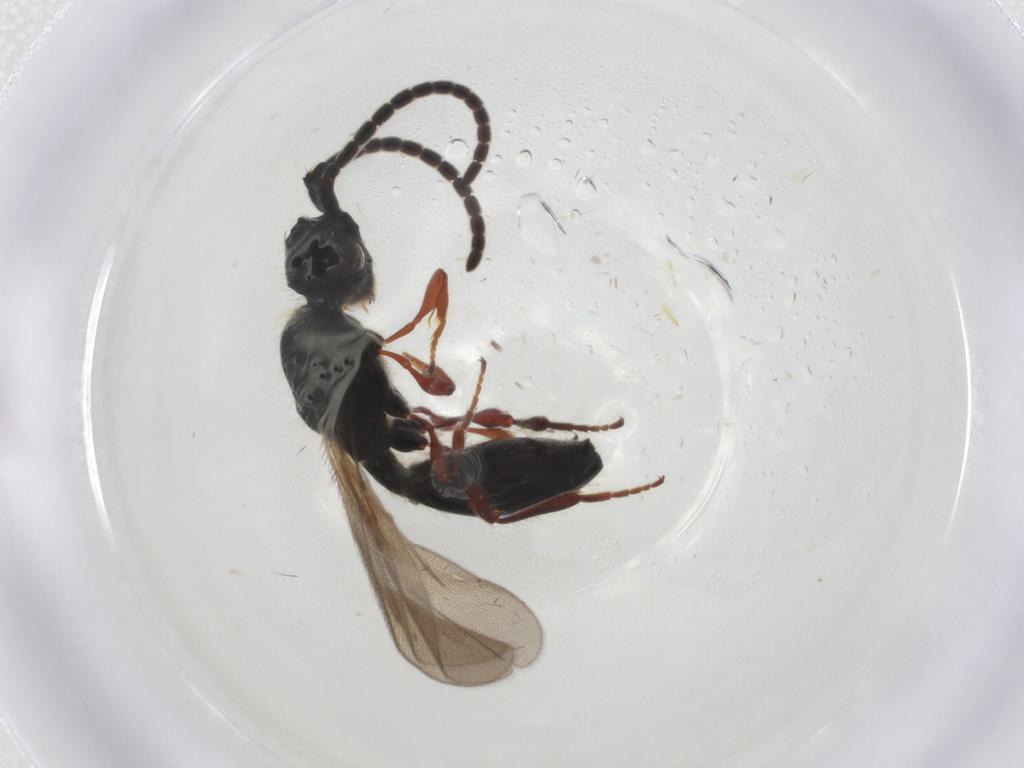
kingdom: Animalia
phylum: Arthropoda
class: Insecta
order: Hymenoptera
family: Diapriidae
